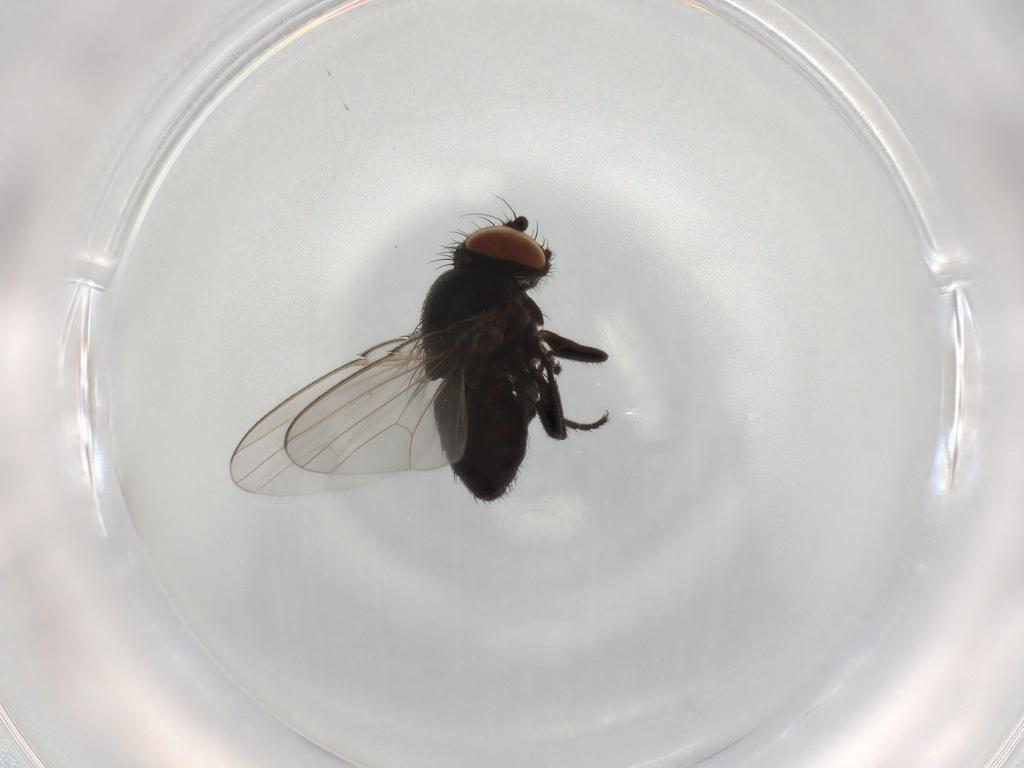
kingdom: Animalia
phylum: Arthropoda
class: Insecta
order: Diptera
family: Chloropidae
